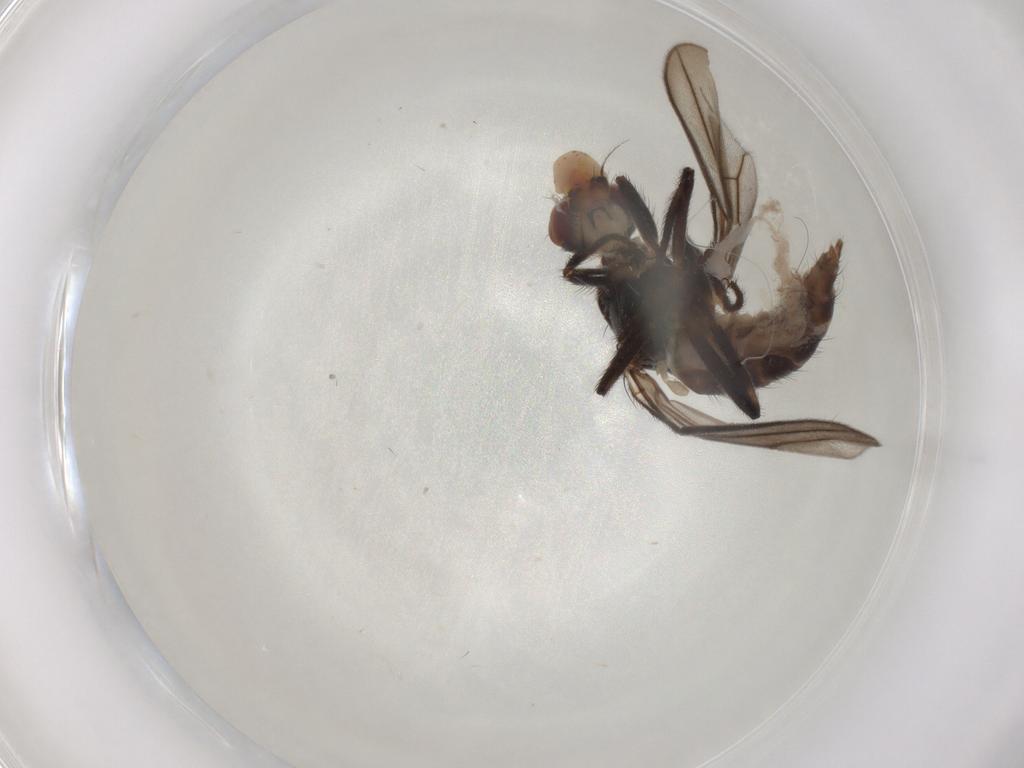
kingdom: Animalia
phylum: Arthropoda
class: Insecta
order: Diptera
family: Chloropidae
